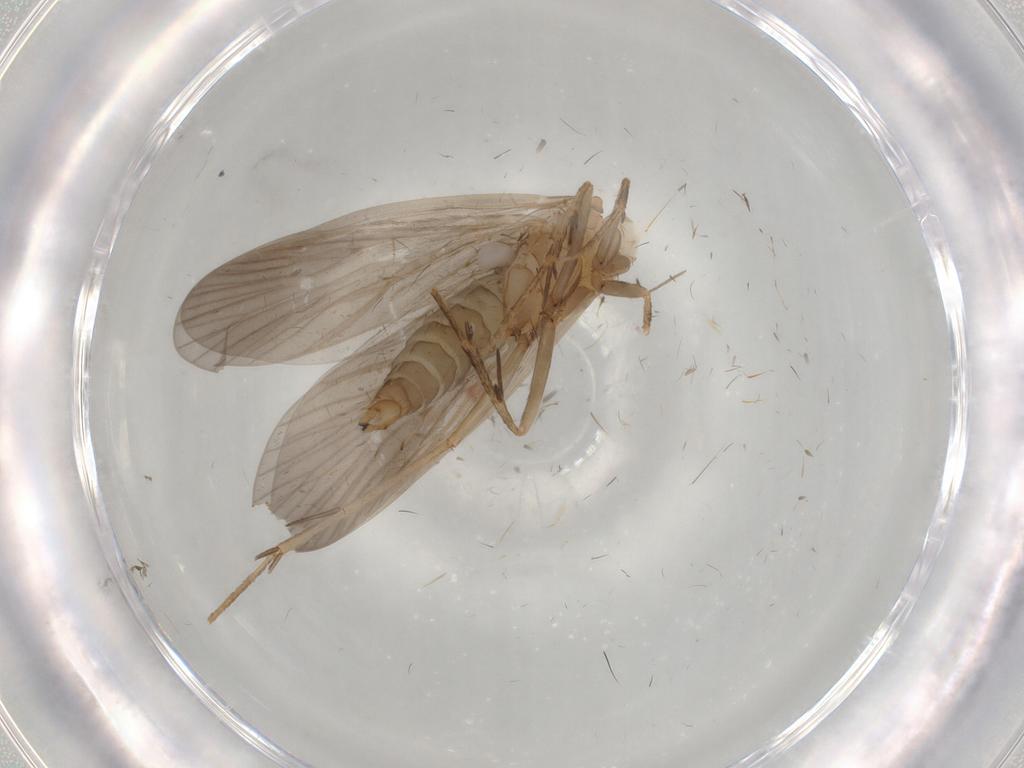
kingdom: Animalia
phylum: Arthropoda
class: Insecta
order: Trichoptera
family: Philopotamidae
